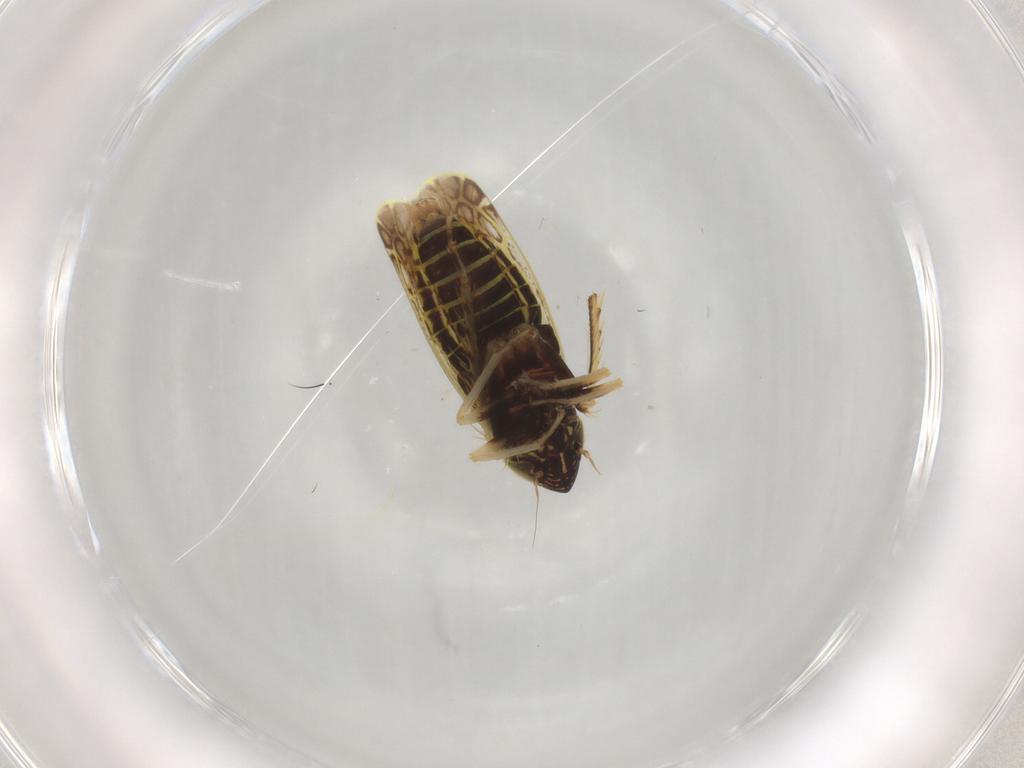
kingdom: Animalia
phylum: Arthropoda
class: Insecta
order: Hemiptera
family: Cicadellidae
